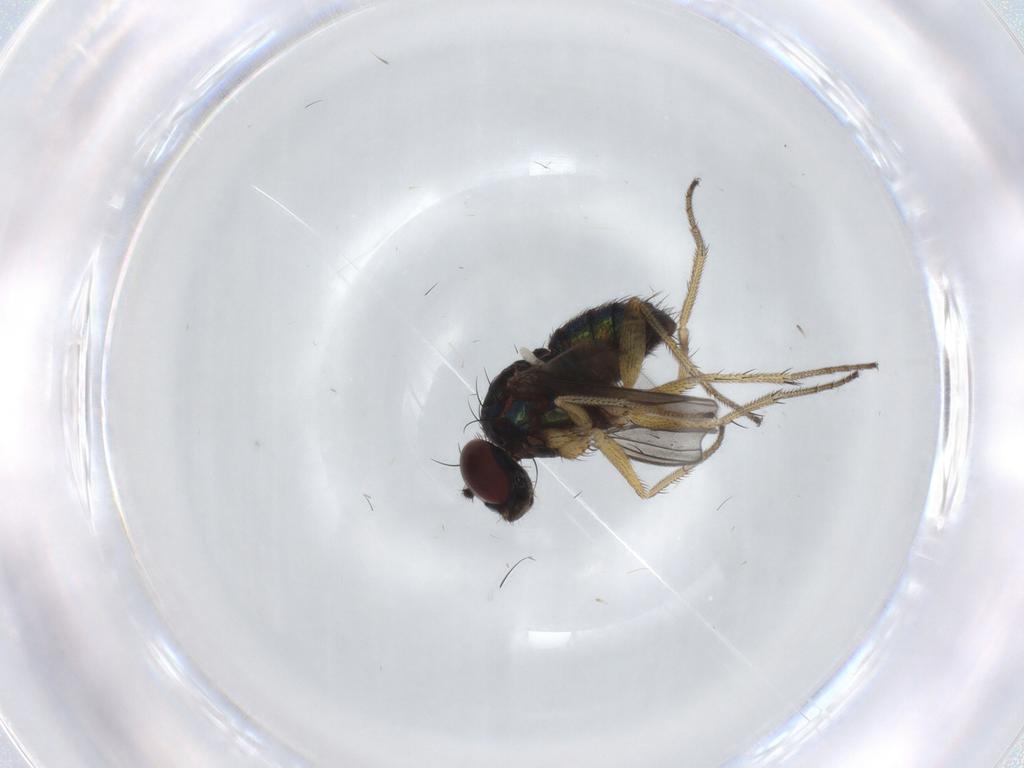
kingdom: Animalia
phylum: Arthropoda
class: Insecta
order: Diptera
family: Dolichopodidae
